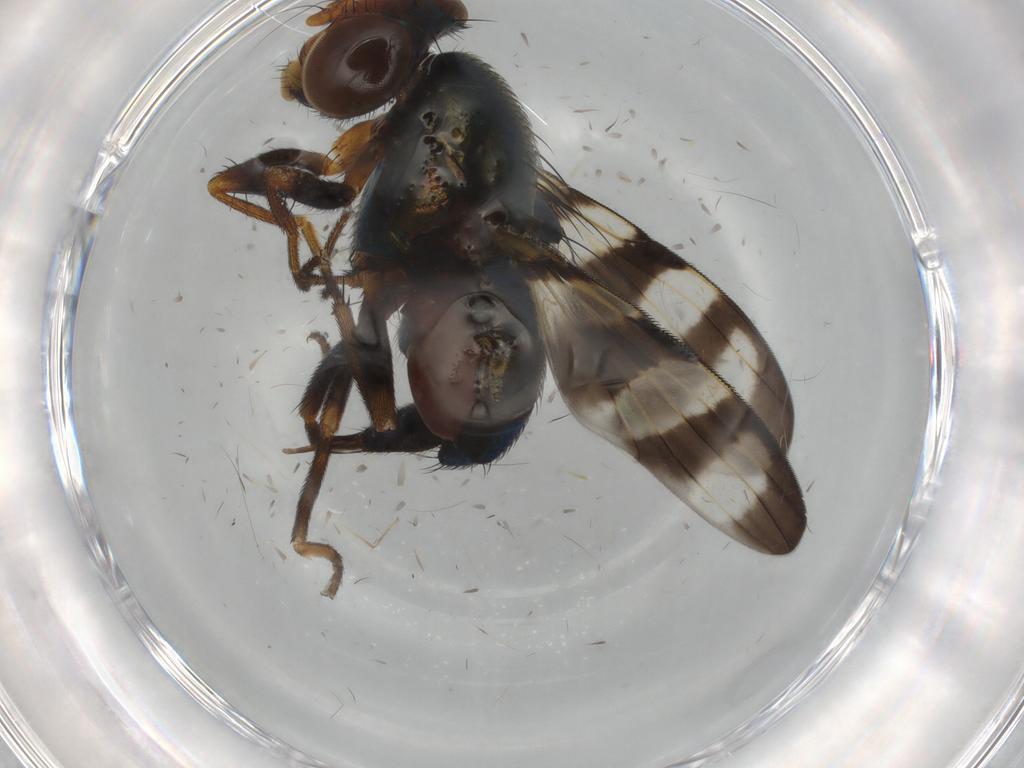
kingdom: Animalia
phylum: Arthropoda
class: Insecta
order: Diptera
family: Ulidiidae
